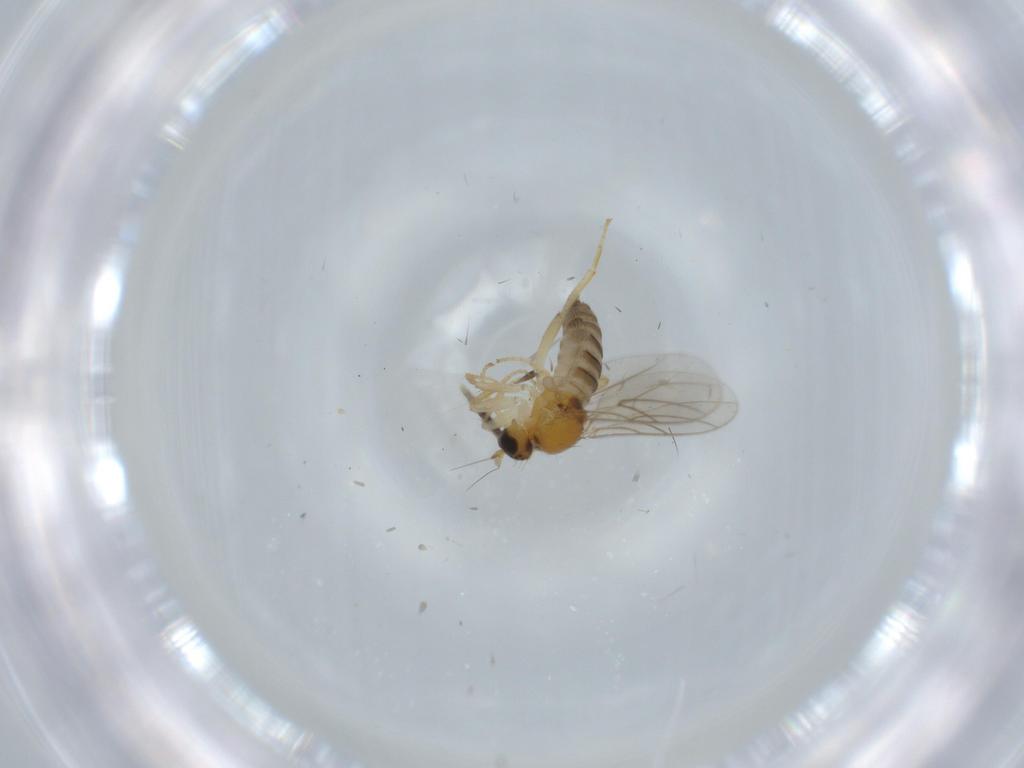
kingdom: Animalia
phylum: Arthropoda
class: Insecta
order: Diptera
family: Hybotidae
